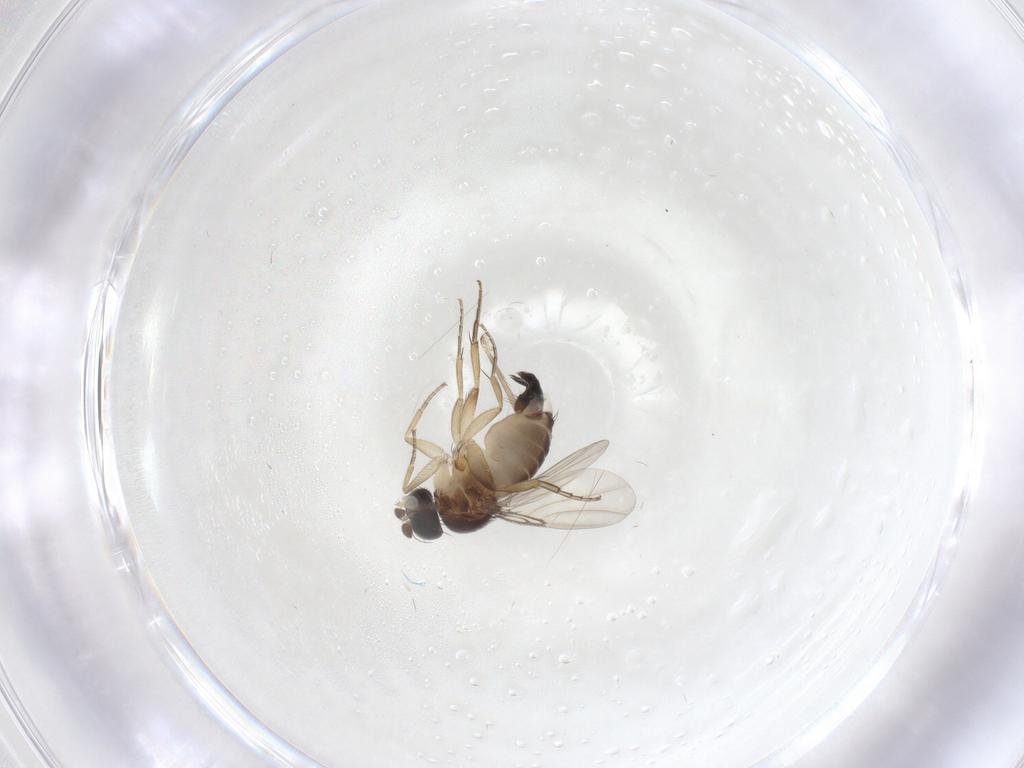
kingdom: Animalia
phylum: Arthropoda
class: Insecta
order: Diptera
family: Phoridae
